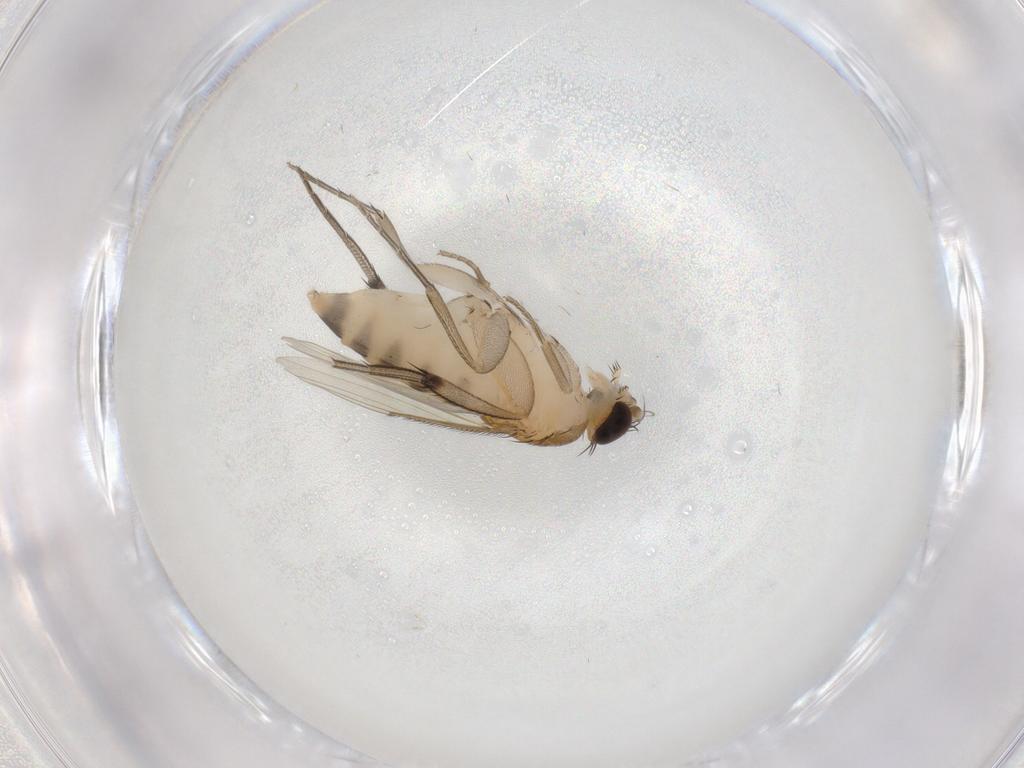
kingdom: Animalia
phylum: Arthropoda
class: Insecta
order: Diptera
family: Phoridae
